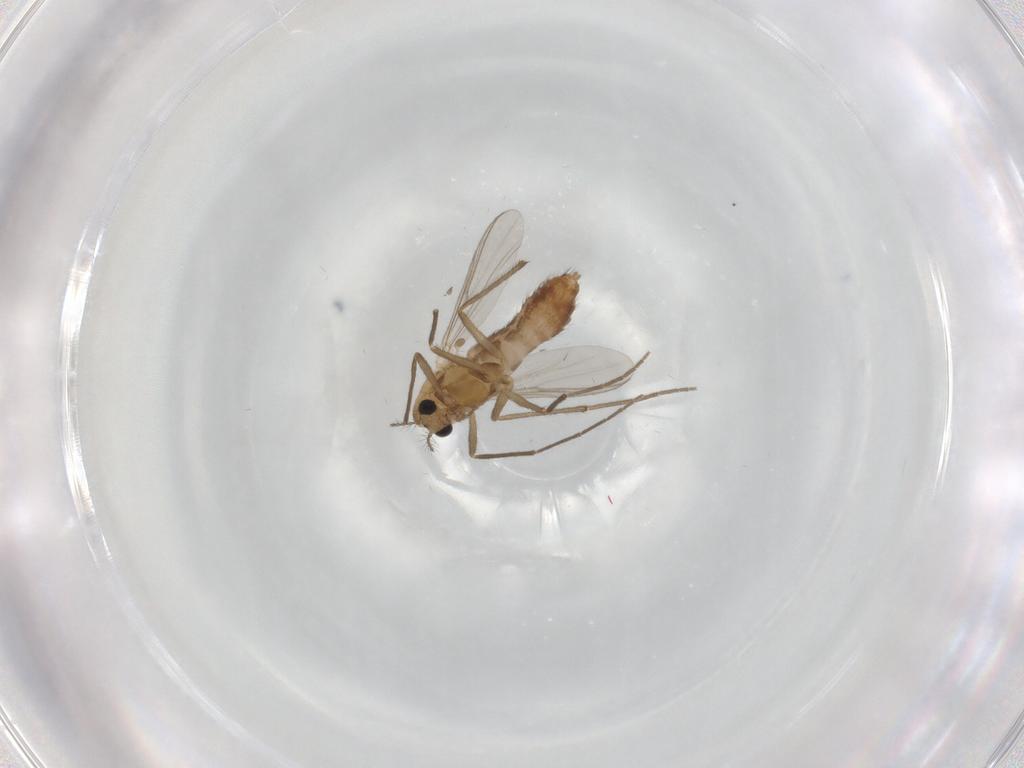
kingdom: Animalia
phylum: Arthropoda
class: Insecta
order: Diptera
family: Chironomidae
